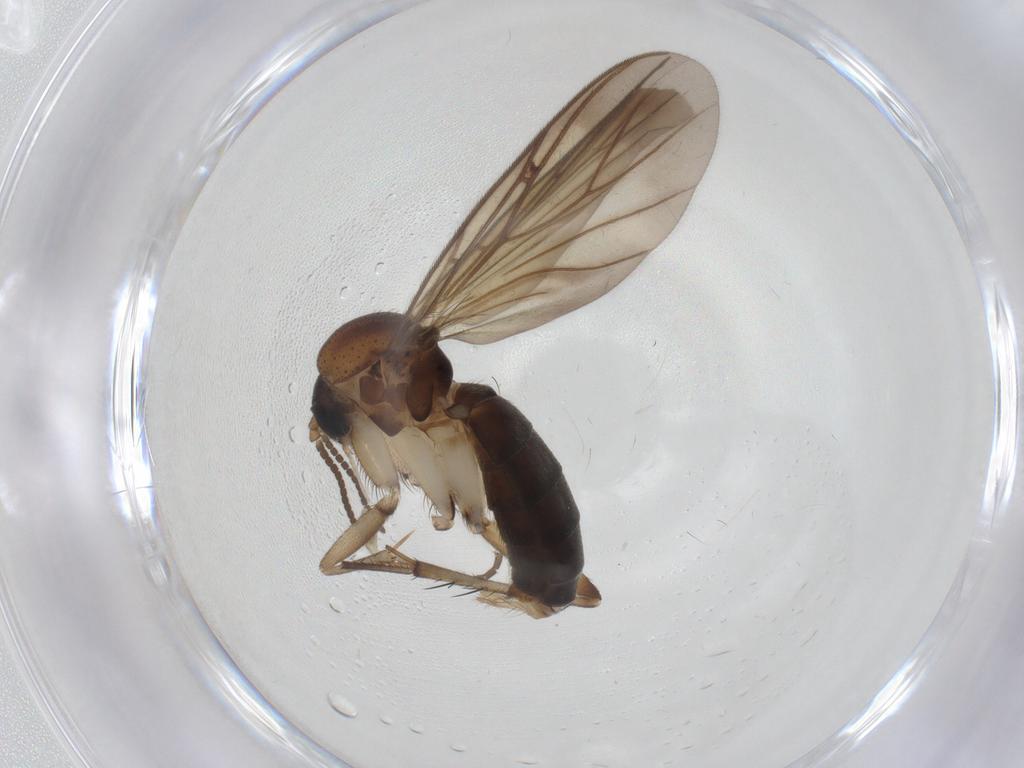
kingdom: Animalia
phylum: Arthropoda
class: Insecta
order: Diptera
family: Mycetophilidae
